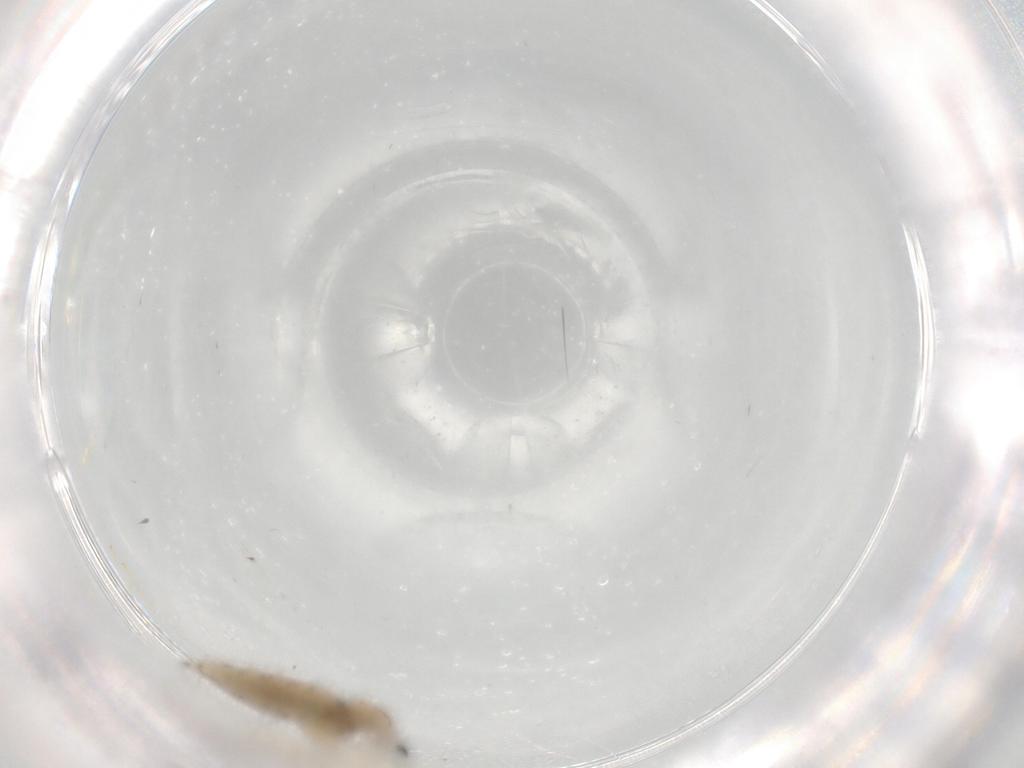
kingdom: Animalia
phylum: Arthropoda
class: Insecta
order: Diptera
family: Cecidomyiidae
